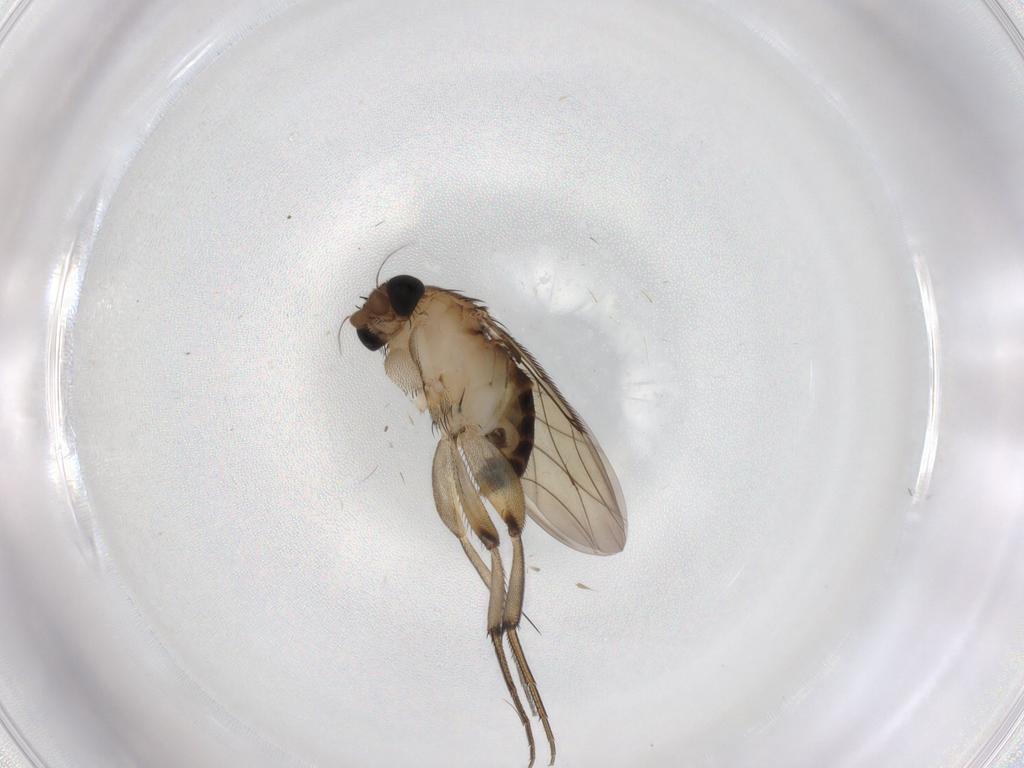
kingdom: Animalia
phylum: Arthropoda
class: Insecta
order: Diptera
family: Phoridae
